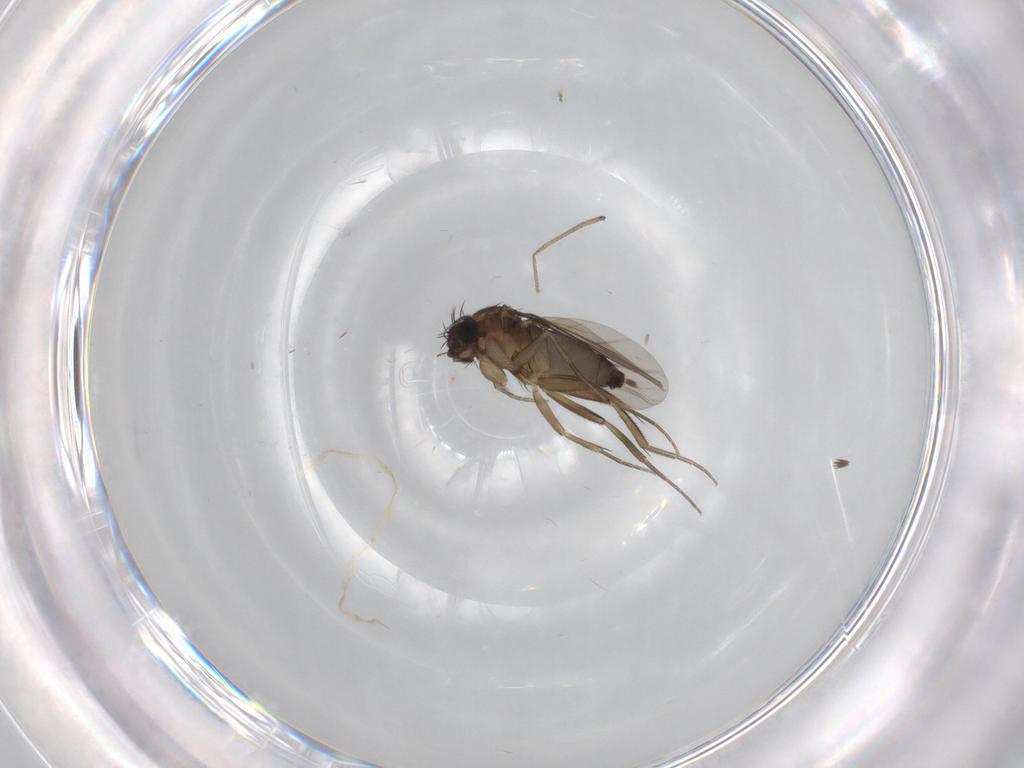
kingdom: Animalia
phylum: Arthropoda
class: Insecta
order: Diptera
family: Phoridae
